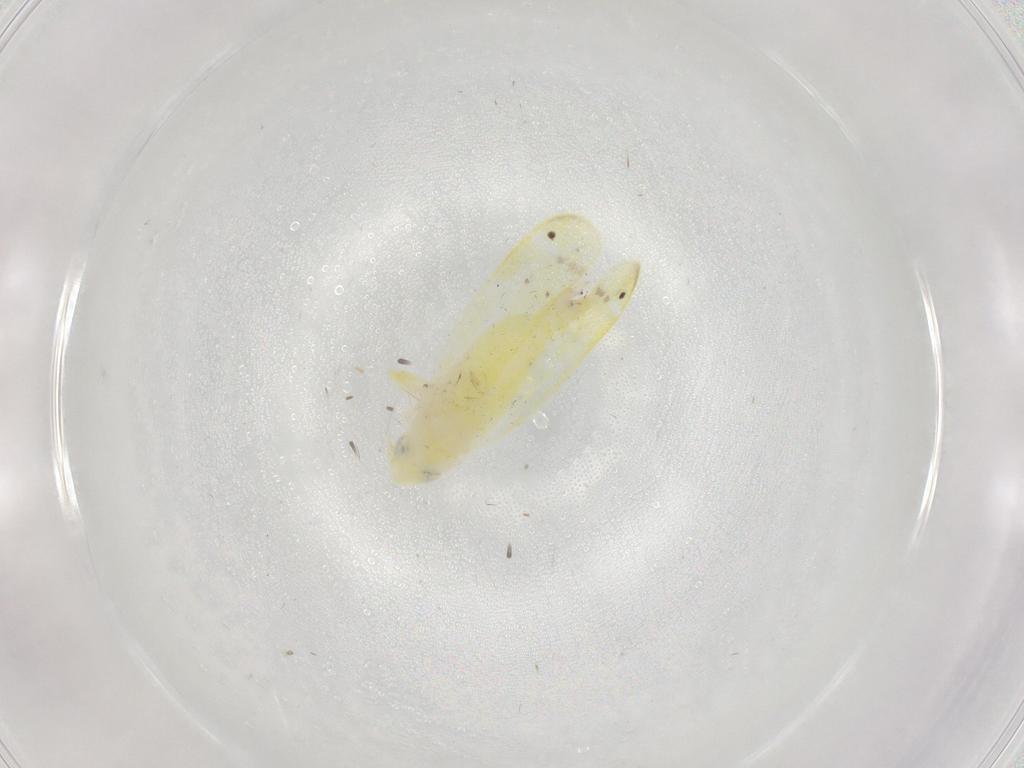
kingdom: Animalia
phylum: Arthropoda
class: Insecta
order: Hemiptera
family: Cicadellidae
